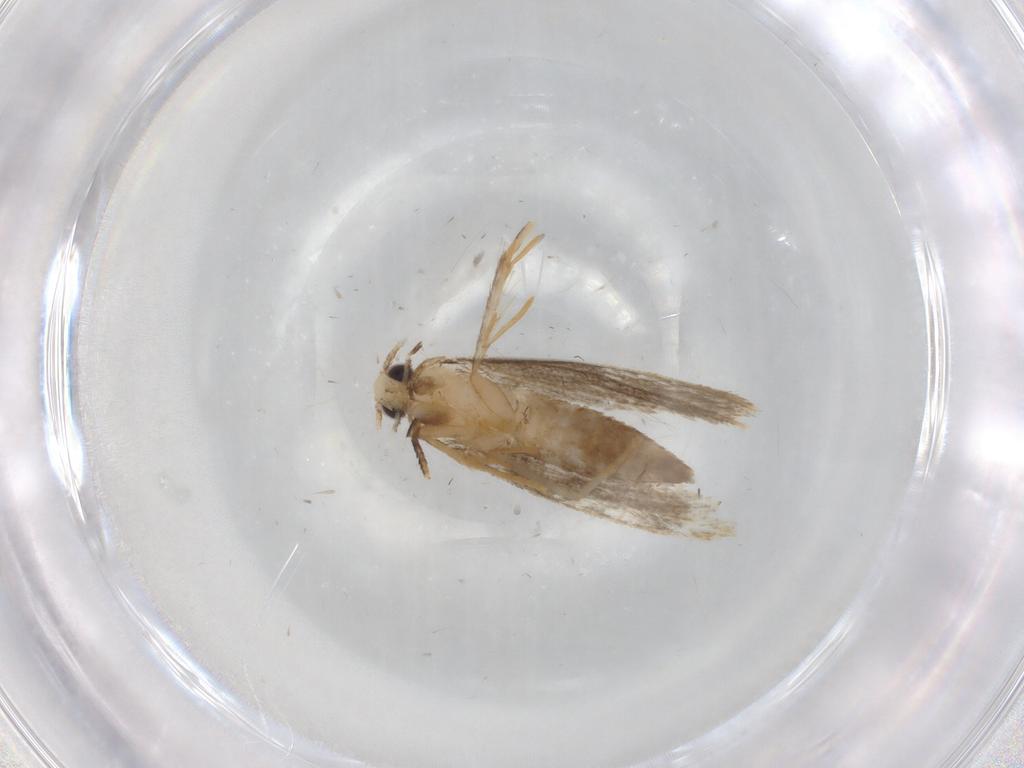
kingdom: Animalia
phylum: Arthropoda
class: Insecta
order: Lepidoptera
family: Tineidae
